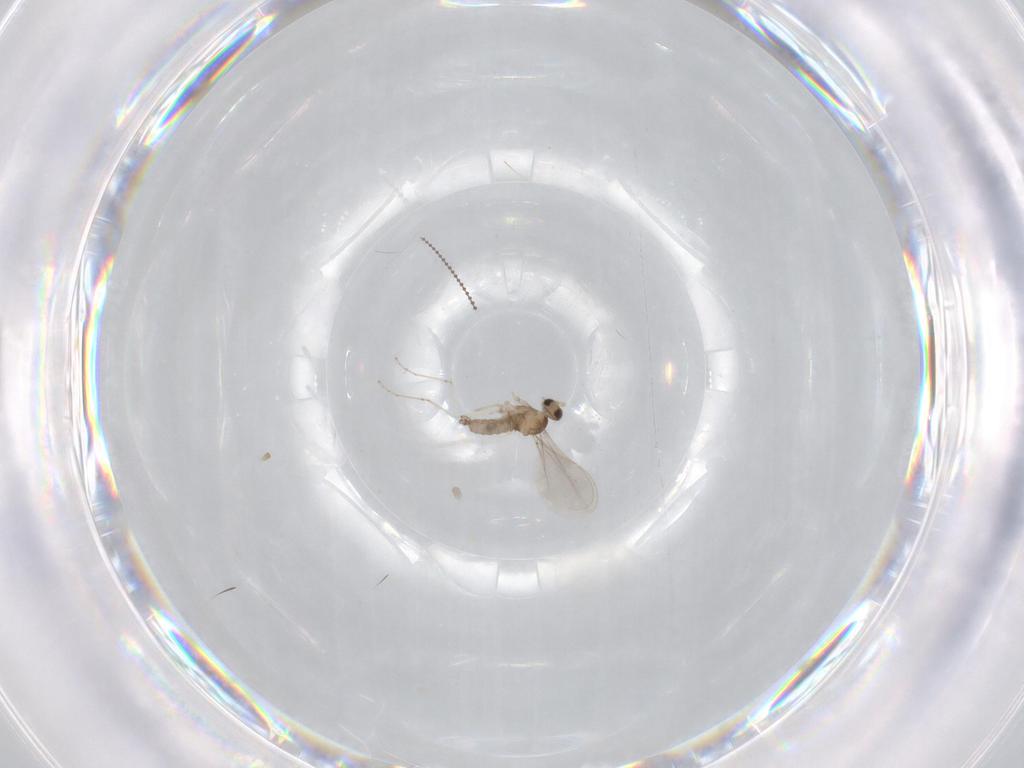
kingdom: Animalia
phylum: Arthropoda
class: Insecta
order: Diptera
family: Cecidomyiidae
